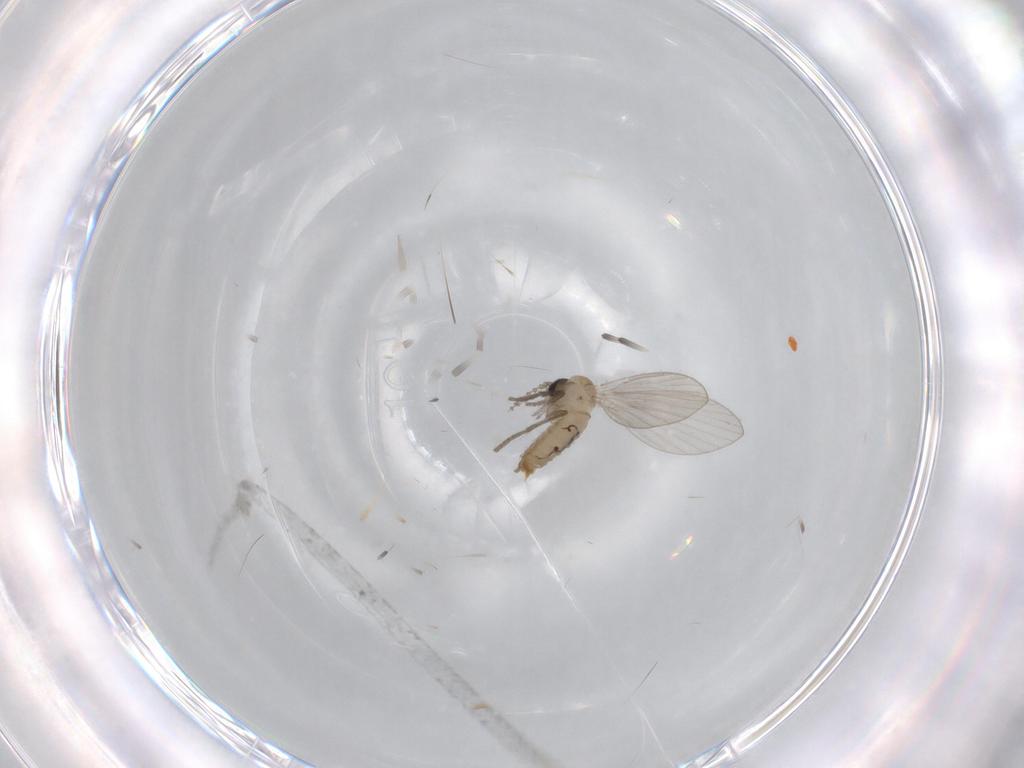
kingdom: Animalia
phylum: Arthropoda
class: Insecta
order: Diptera
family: Psychodidae
